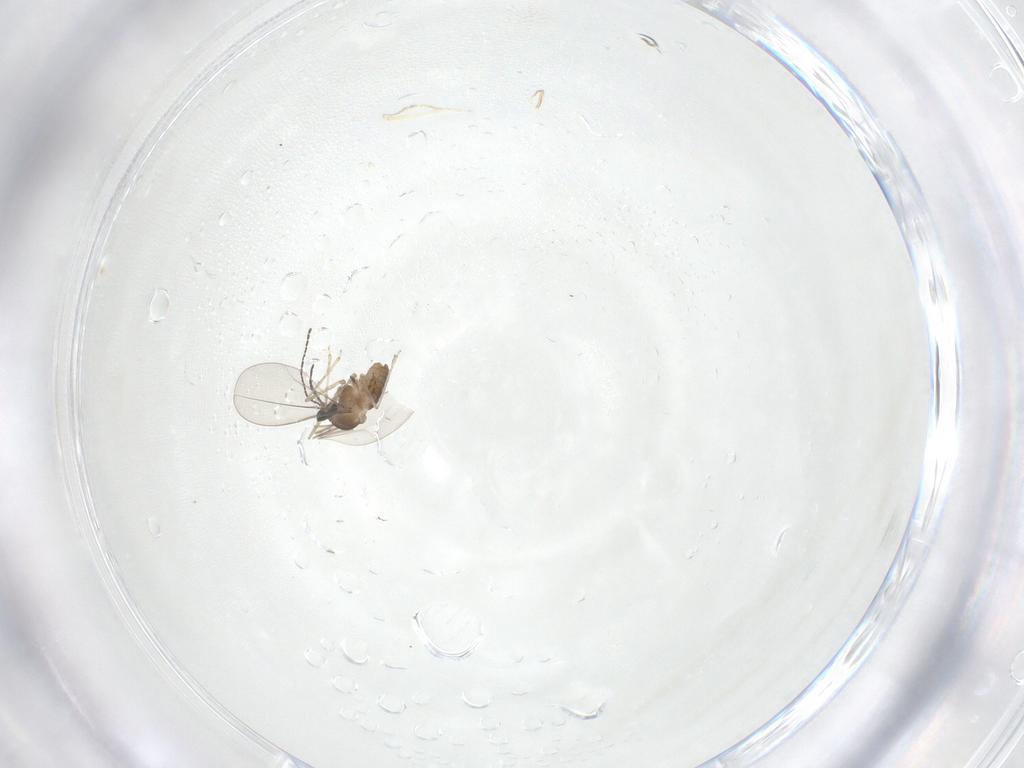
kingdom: Animalia
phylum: Arthropoda
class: Insecta
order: Diptera
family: Cecidomyiidae
